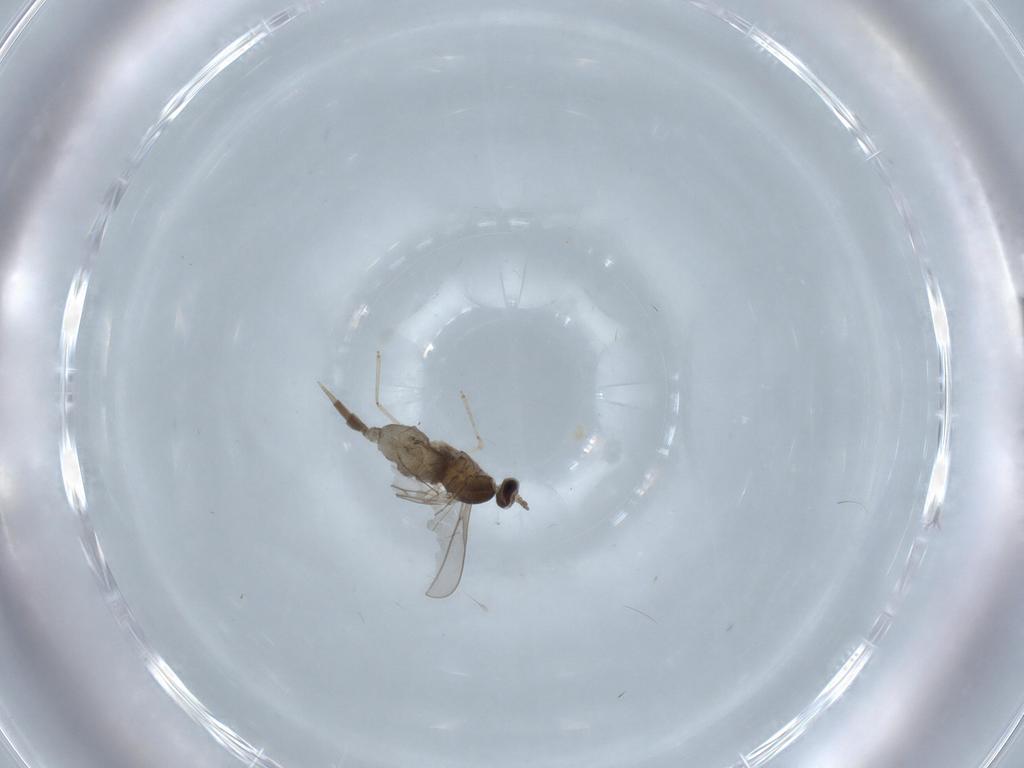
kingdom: Animalia
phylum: Arthropoda
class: Insecta
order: Diptera
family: Cecidomyiidae
